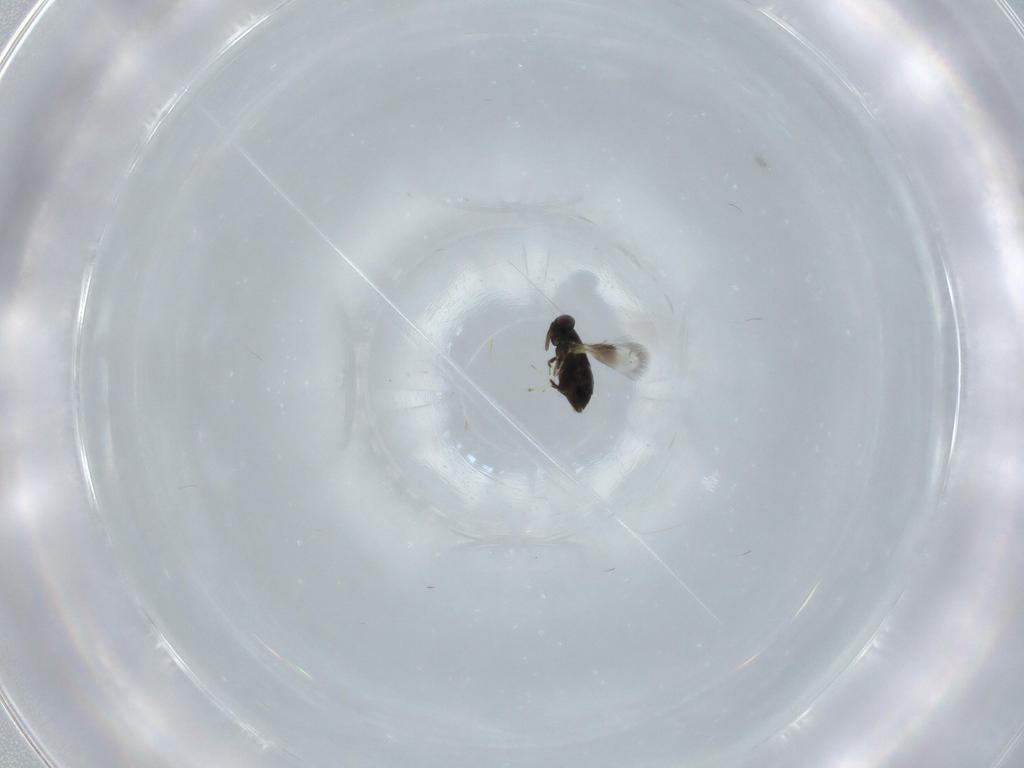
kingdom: Animalia
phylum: Arthropoda
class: Insecta
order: Hymenoptera
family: Signiphoridae
